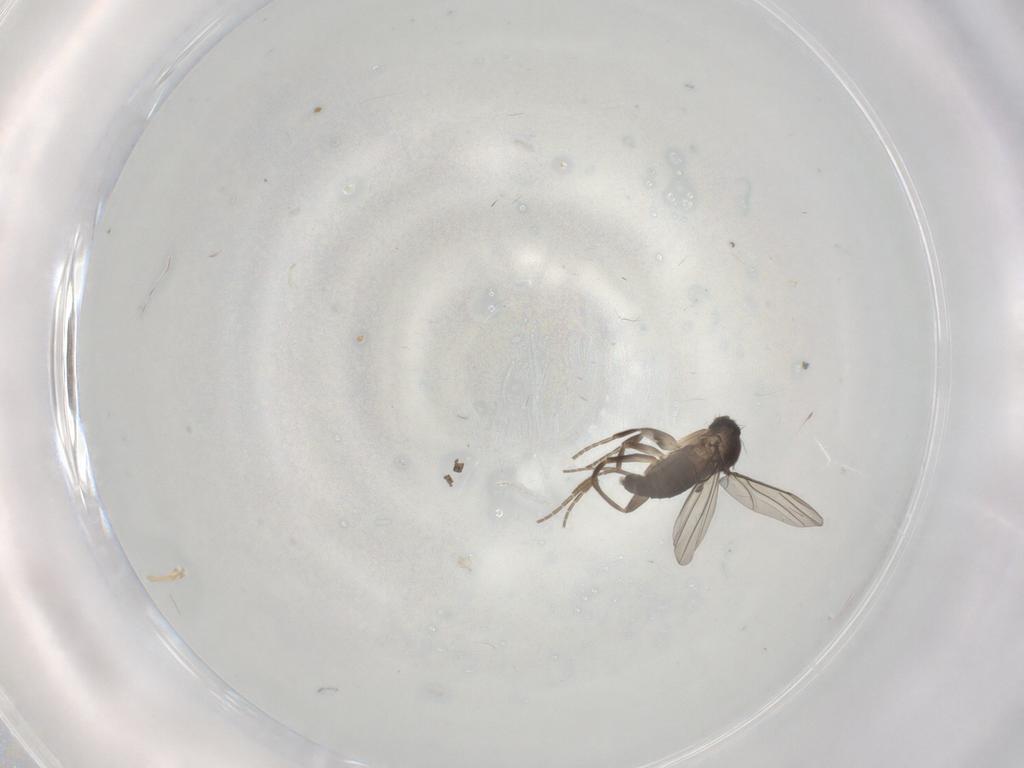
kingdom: Animalia
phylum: Arthropoda
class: Insecta
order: Diptera
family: Phoridae
